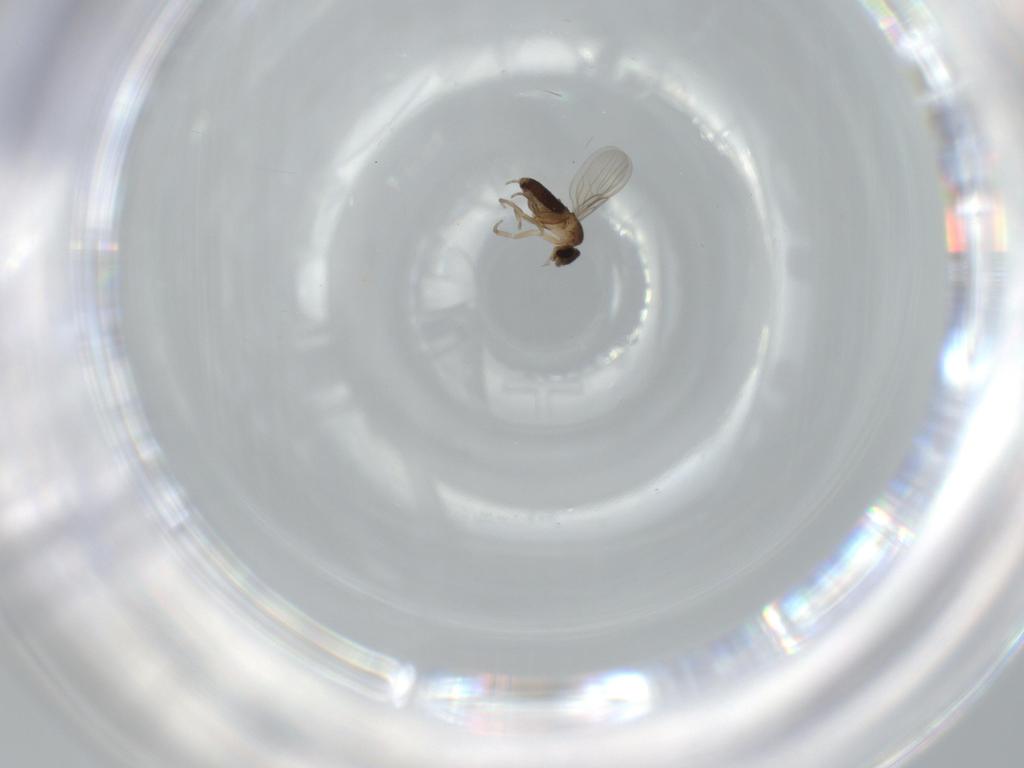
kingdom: Animalia
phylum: Arthropoda
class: Insecta
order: Diptera
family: Phoridae
